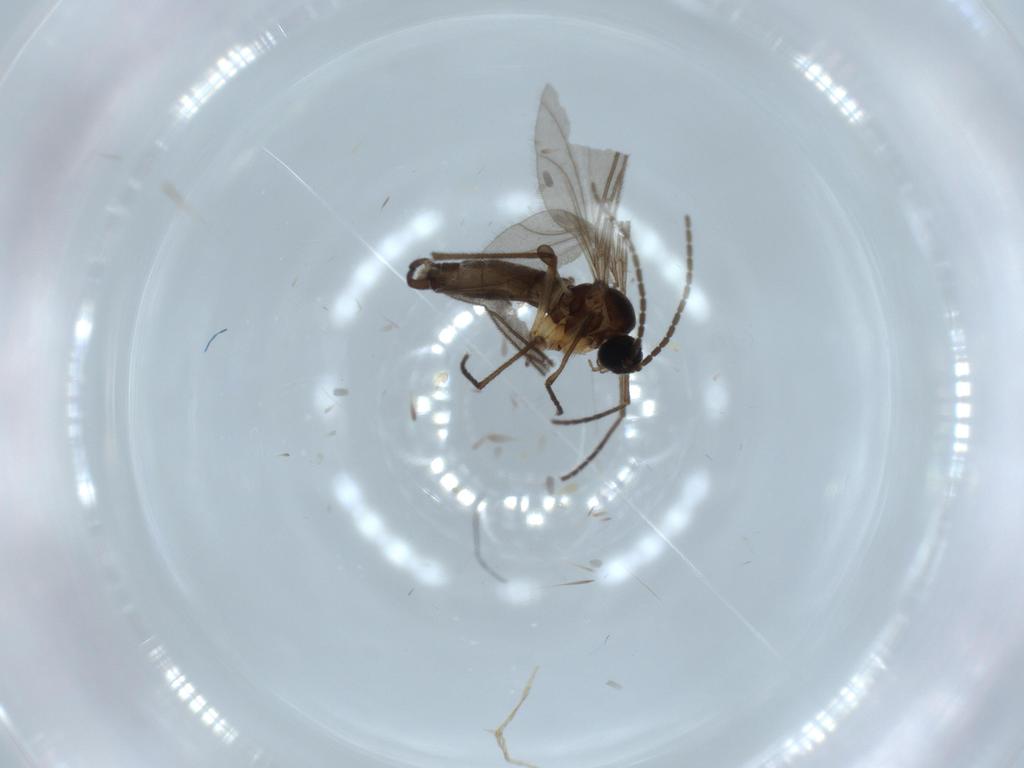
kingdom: Animalia
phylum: Arthropoda
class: Insecta
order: Diptera
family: Sciaridae
